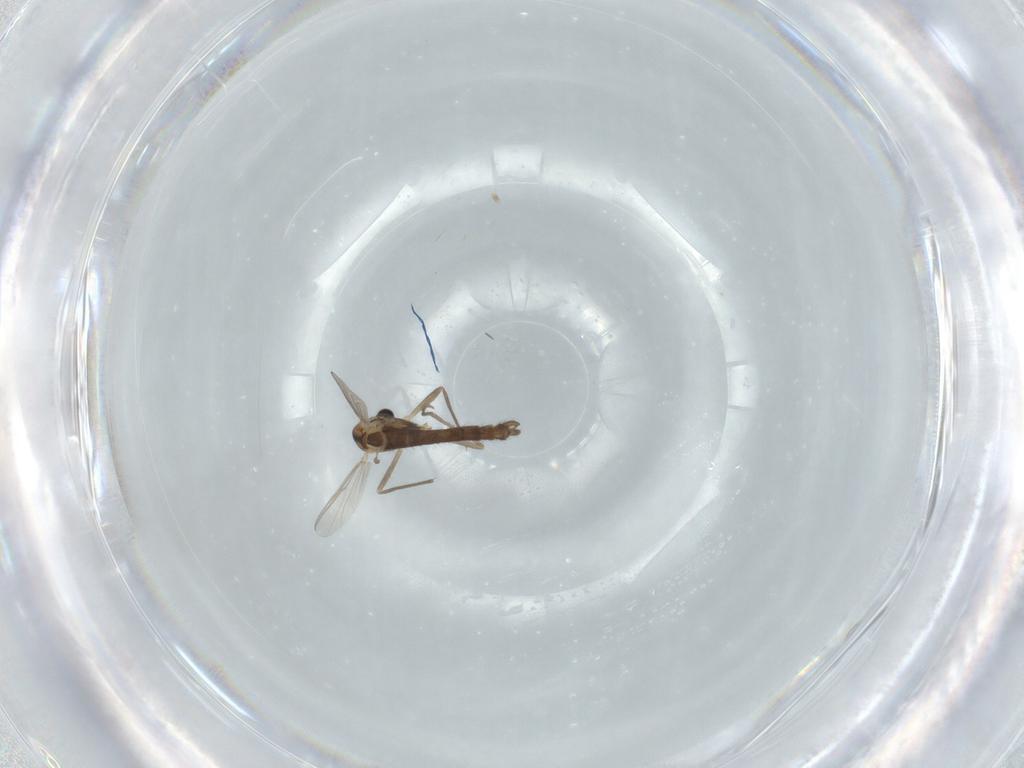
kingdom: Animalia
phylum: Arthropoda
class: Insecta
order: Diptera
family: Chironomidae
